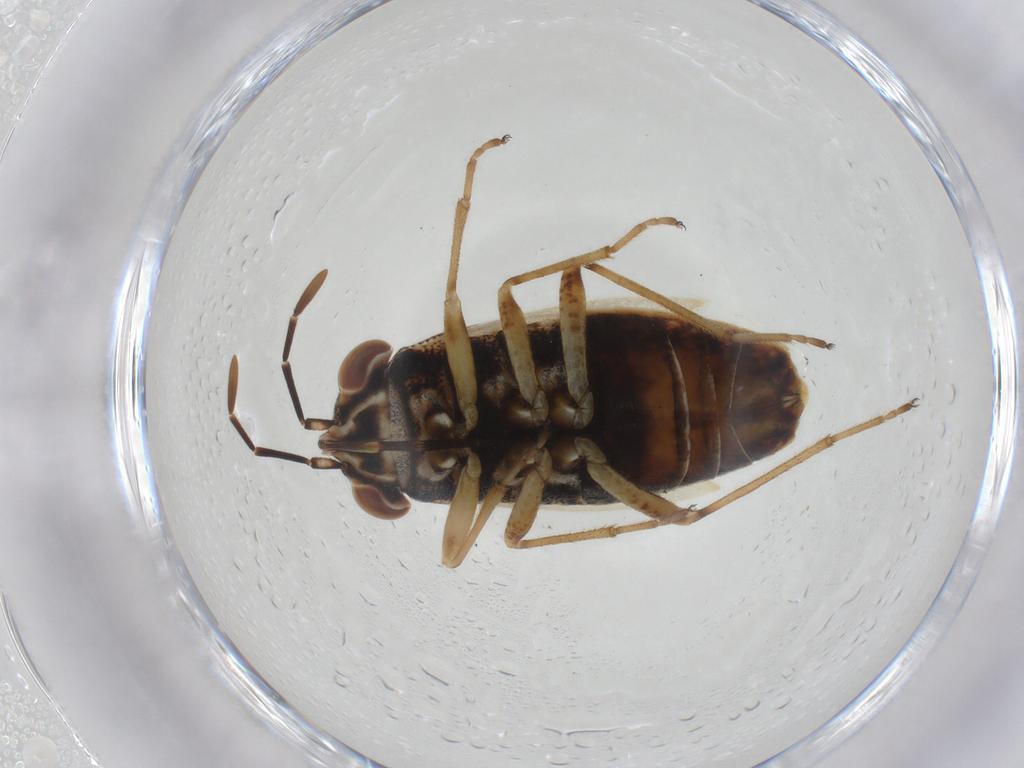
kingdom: Animalia
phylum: Arthropoda
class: Insecta
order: Hemiptera
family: Geocoridae
